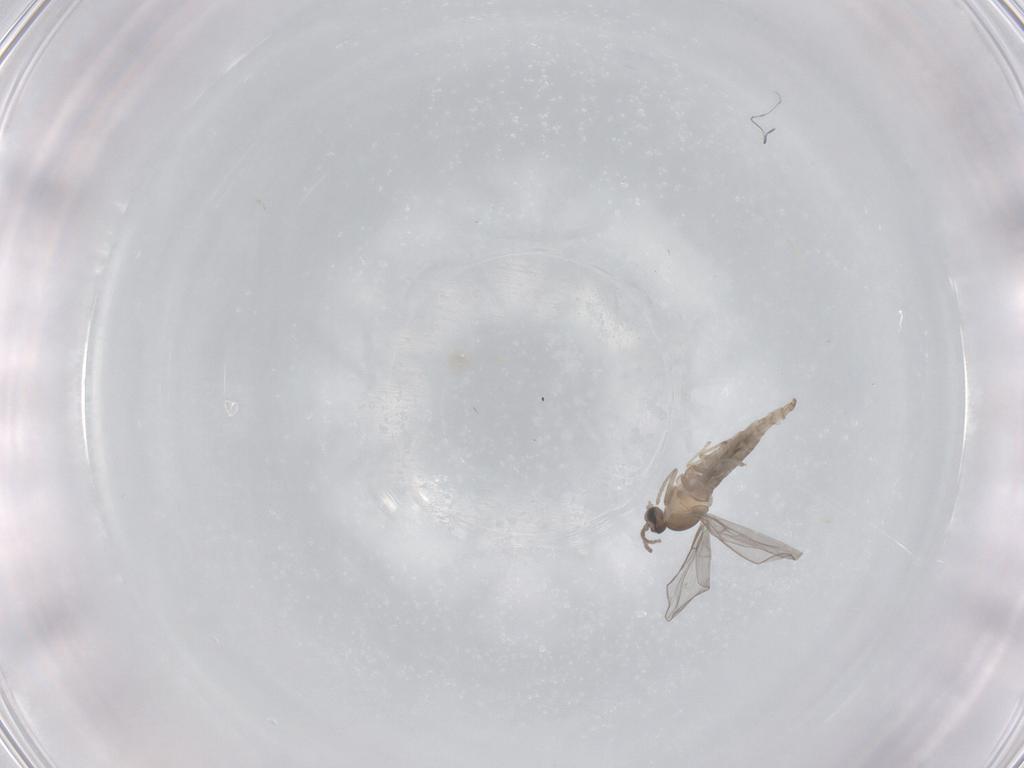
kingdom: Animalia
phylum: Arthropoda
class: Insecta
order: Diptera
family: Cecidomyiidae
